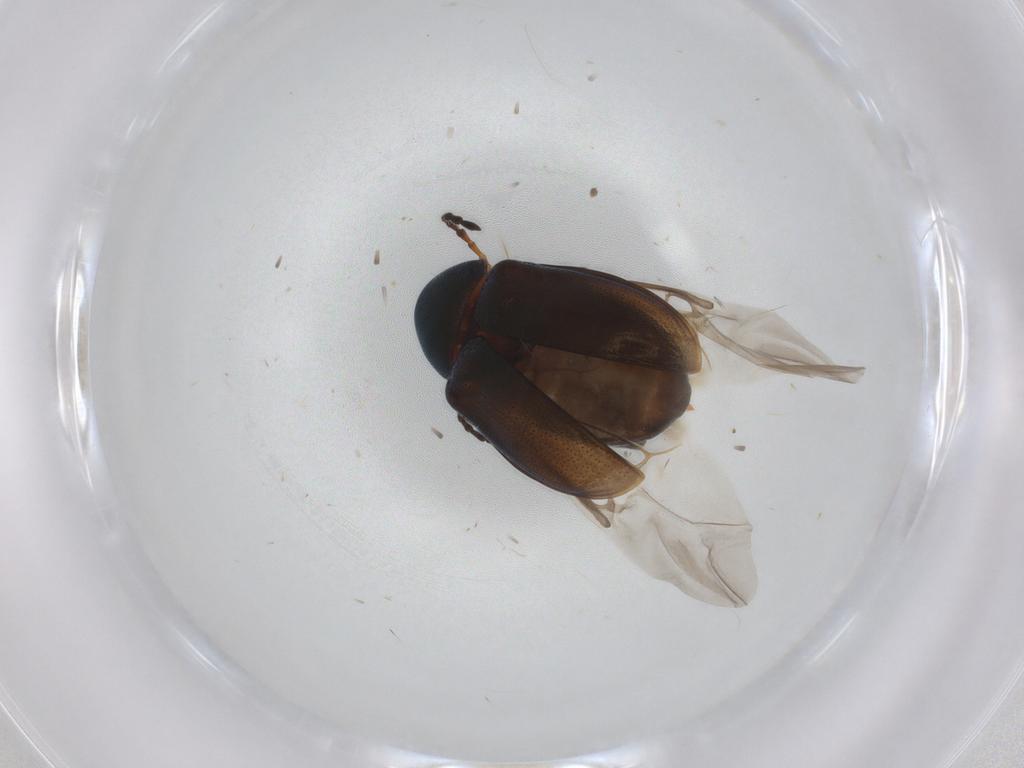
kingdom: Animalia
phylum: Arthropoda
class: Insecta
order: Coleoptera
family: Chrysomelidae
